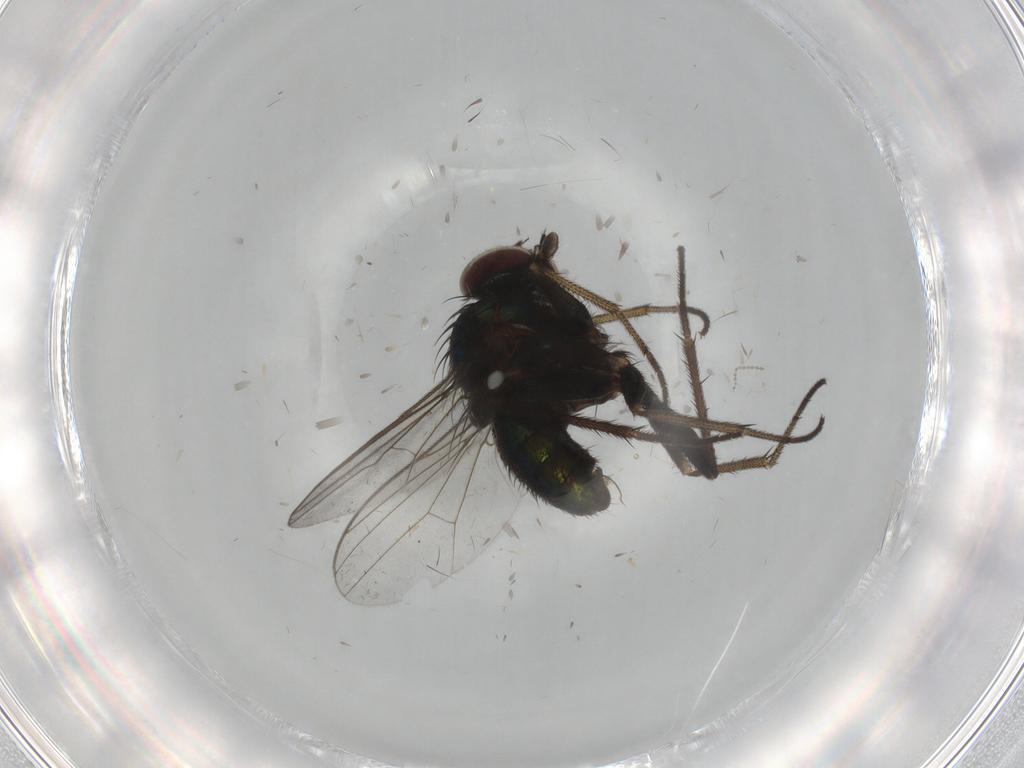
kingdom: Animalia
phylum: Arthropoda
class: Insecta
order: Diptera
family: Dolichopodidae
